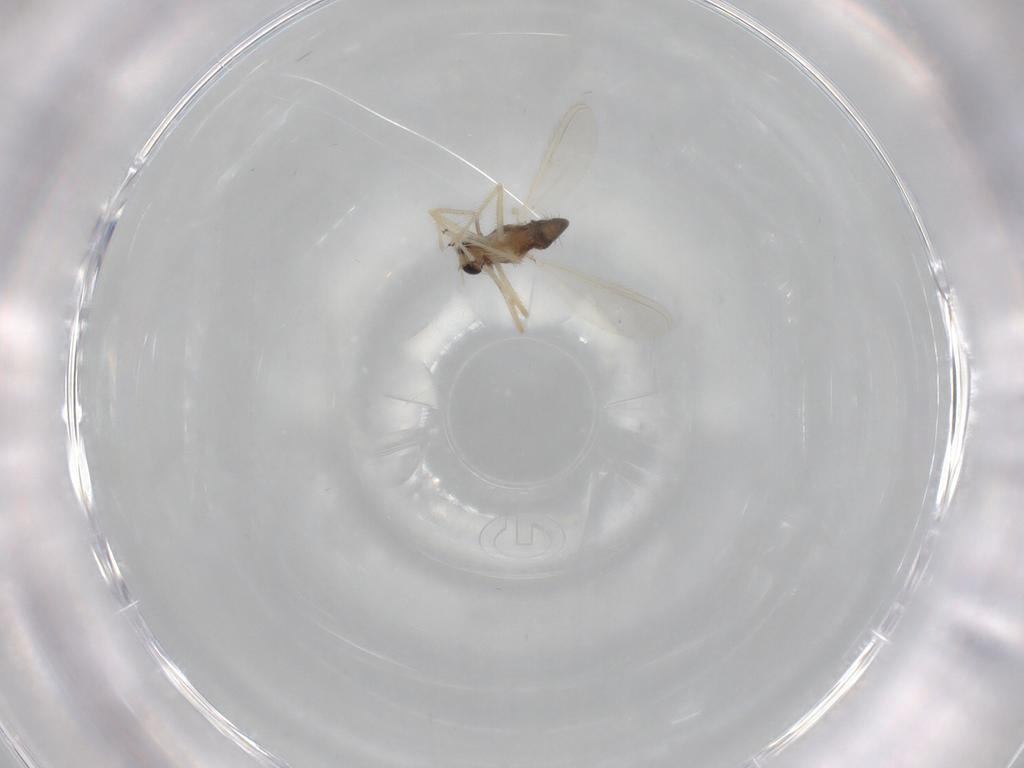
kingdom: Animalia
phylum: Arthropoda
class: Insecta
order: Diptera
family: Chironomidae
